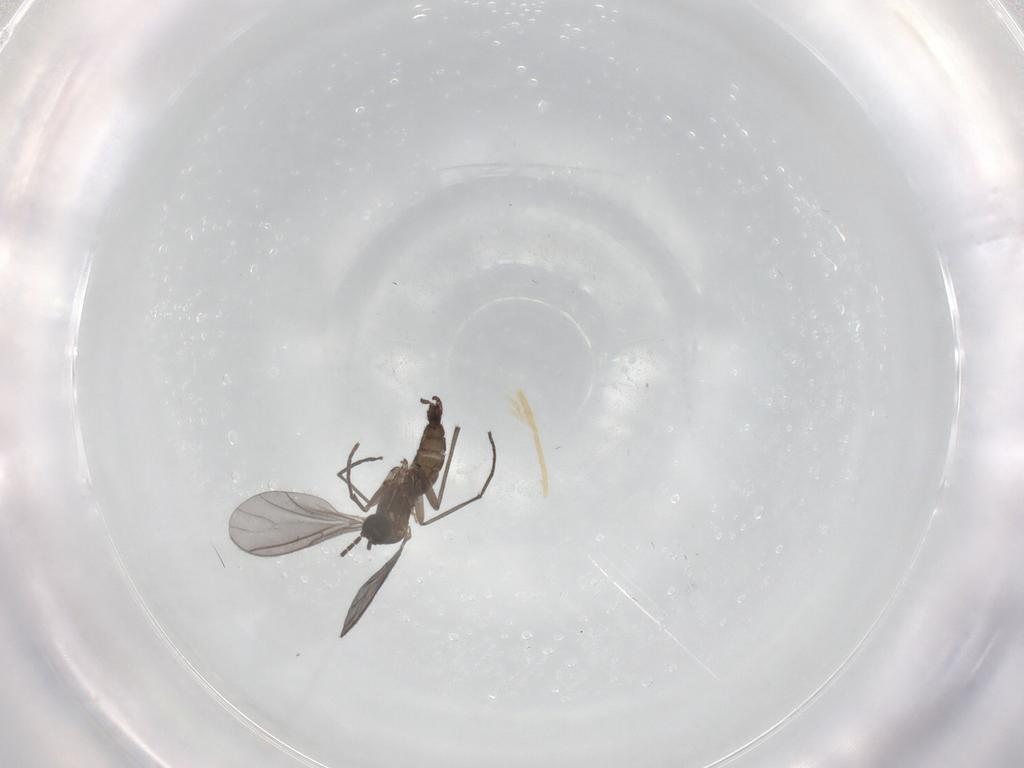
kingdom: Animalia
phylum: Arthropoda
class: Insecta
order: Diptera
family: Sciaridae
